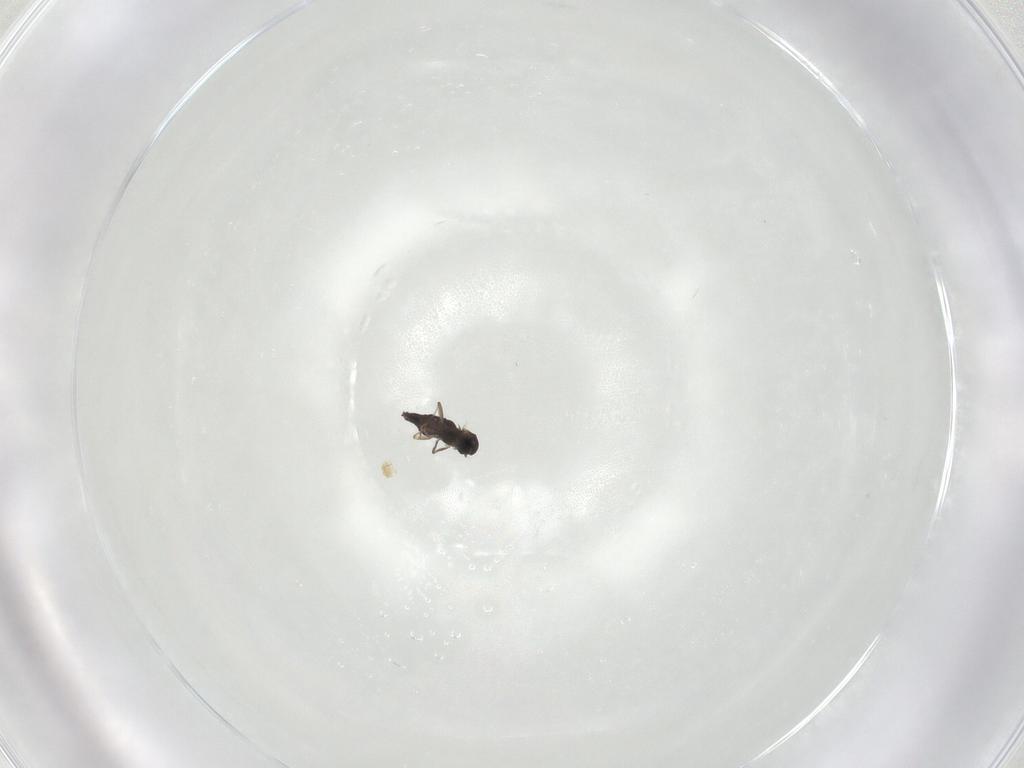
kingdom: Animalia
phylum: Arthropoda
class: Insecta
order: Diptera
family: Chironomidae
